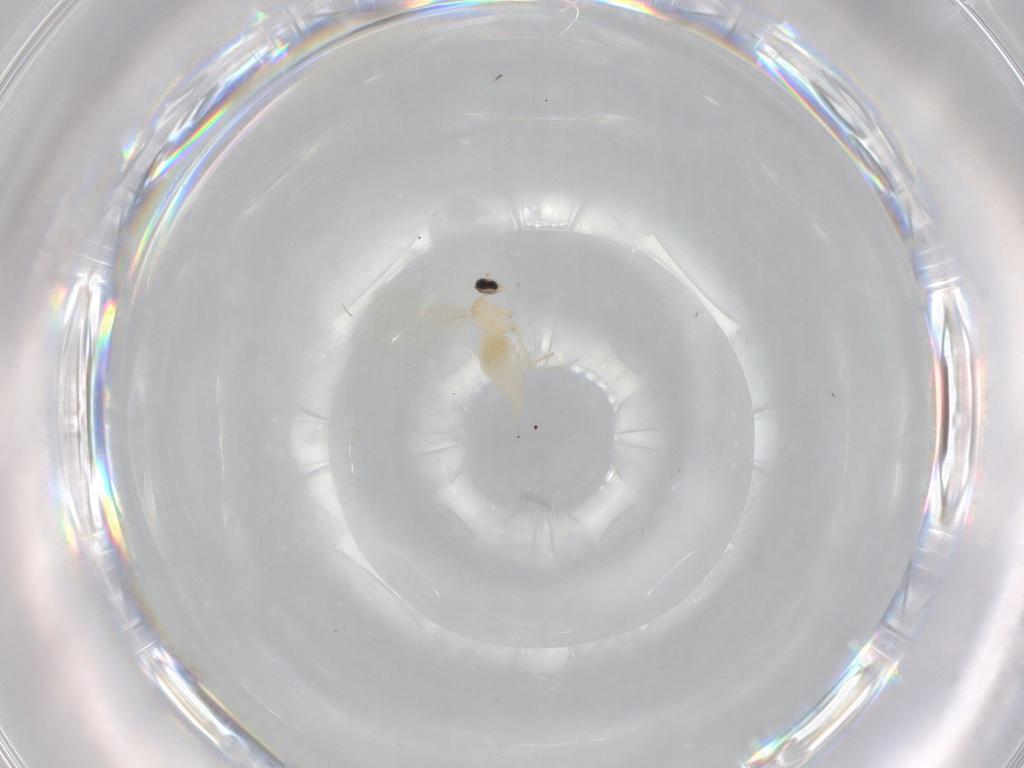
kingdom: Animalia
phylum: Arthropoda
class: Insecta
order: Diptera
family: Cecidomyiidae
